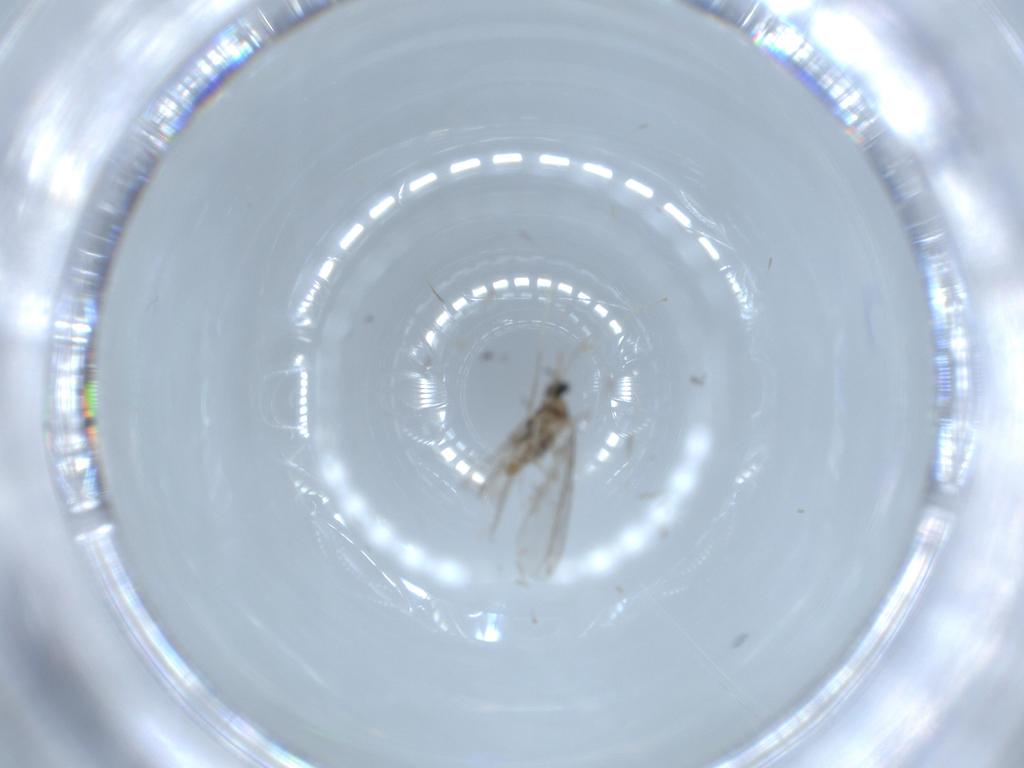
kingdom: Animalia
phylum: Arthropoda
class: Insecta
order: Diptera
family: Cecidomyiidae
